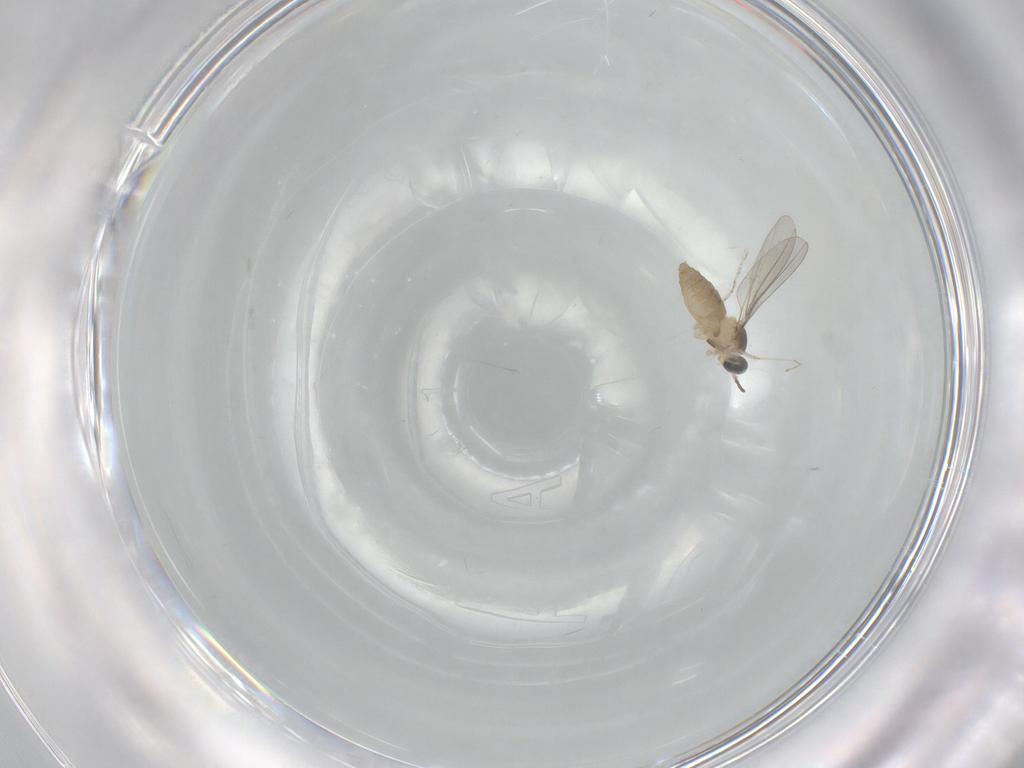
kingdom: Animalia
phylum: Arthropoda
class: Insecta
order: Diptera
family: Cecidomyiidae
